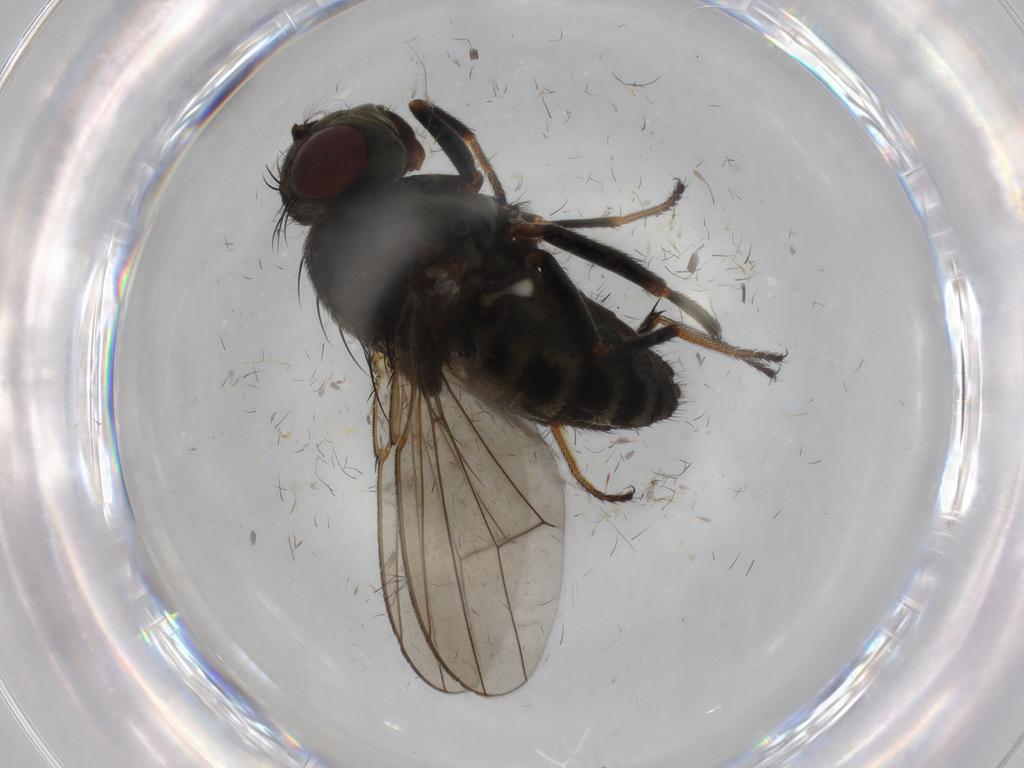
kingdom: Animalia
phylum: Arthropoda
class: Insecta
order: Diptera
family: Ephydridae
